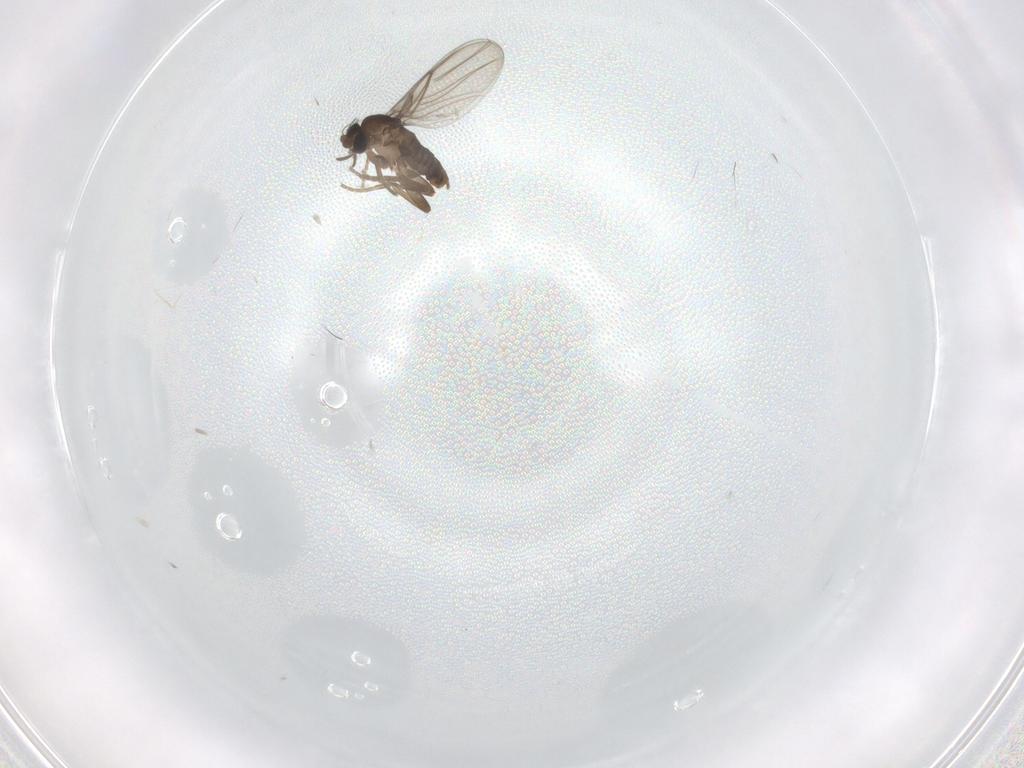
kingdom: Animalia
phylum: Arthropoda
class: Insecta
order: Diptera
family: Phoridae
